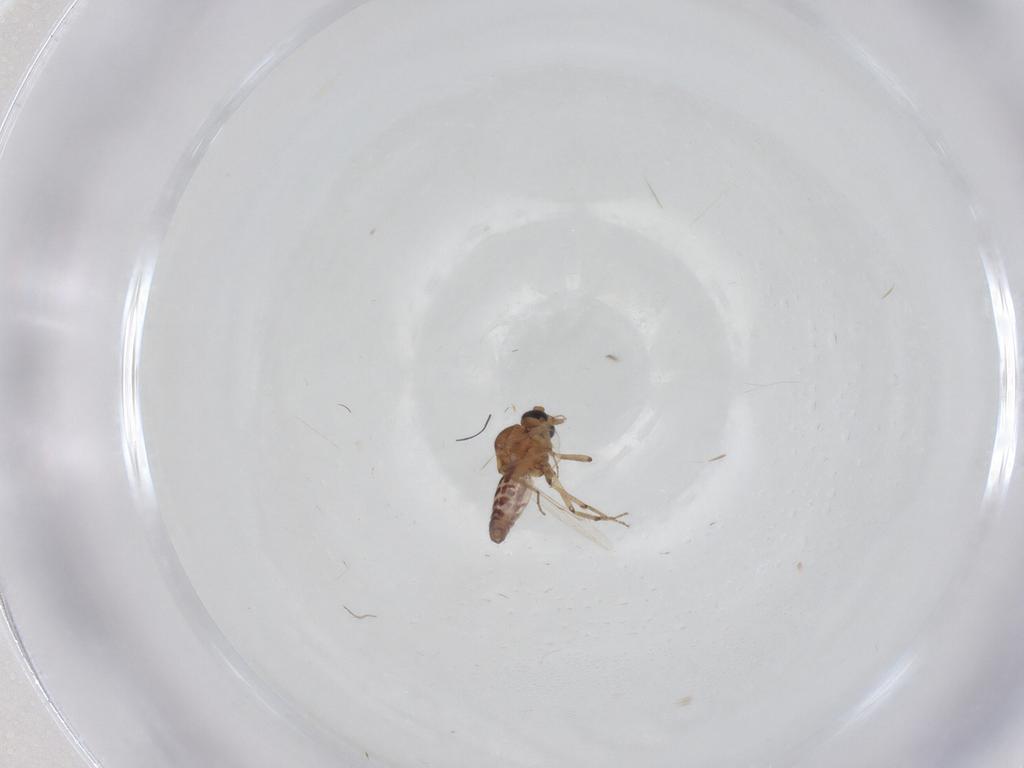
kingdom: Animalia
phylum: Arthropoda
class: Insecta
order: Diptera
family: Ceratopogonidae
